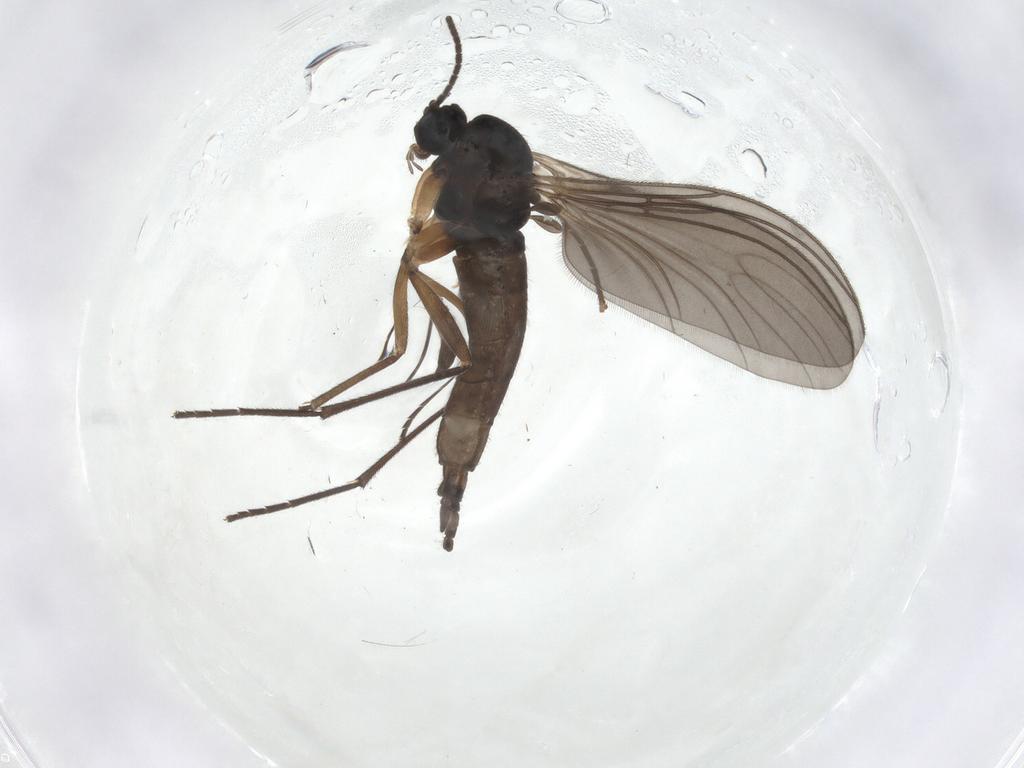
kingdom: Animalia
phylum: Arthropoda
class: Insecta
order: Diptera
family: Sciaridae
